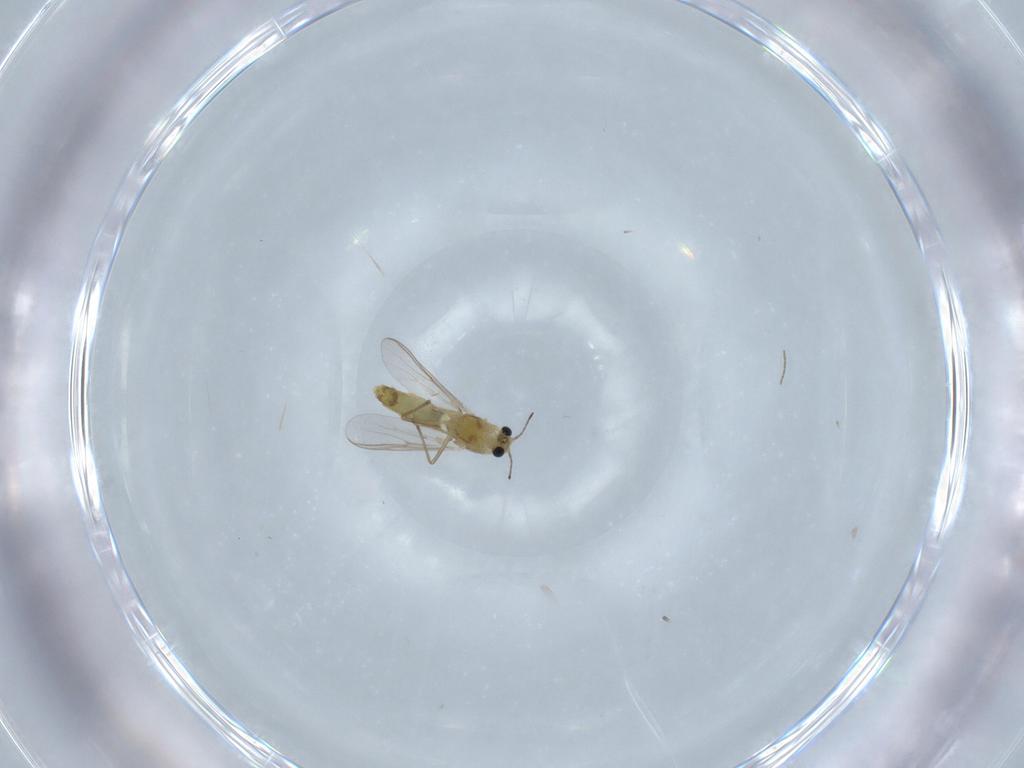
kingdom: Animalia
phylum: Arthropoda
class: Insecta
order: Diptera
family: Chironomidae
